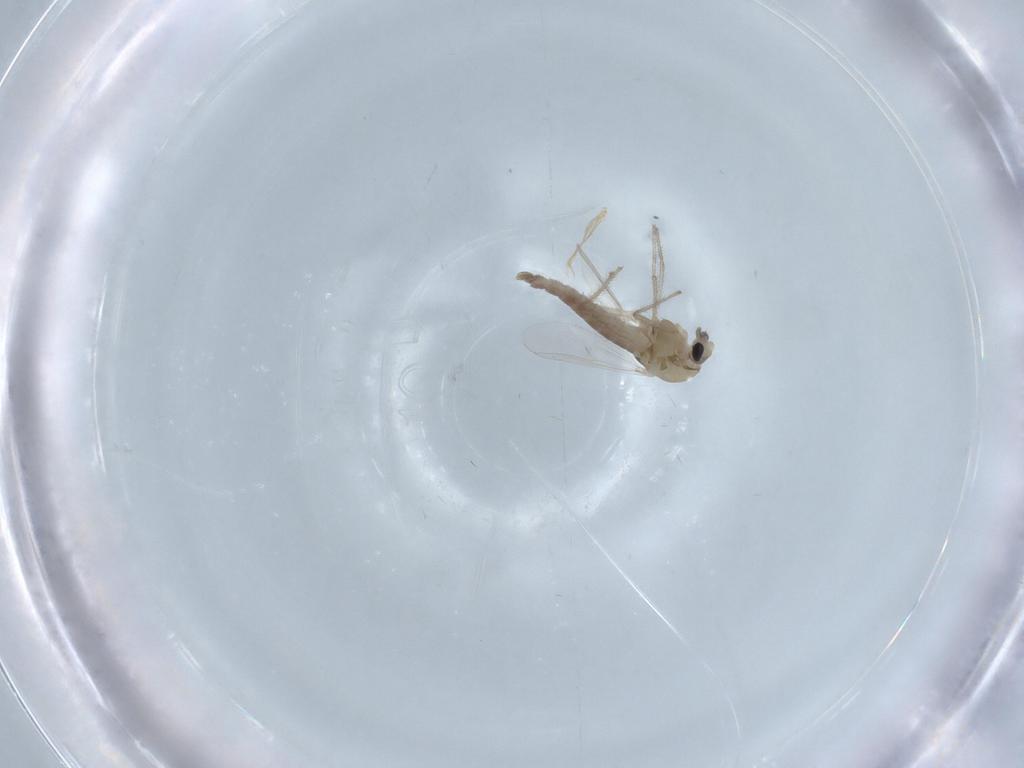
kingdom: Animalia
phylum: Arthropoda
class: Insecta
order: Diptera
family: Chironomidae
